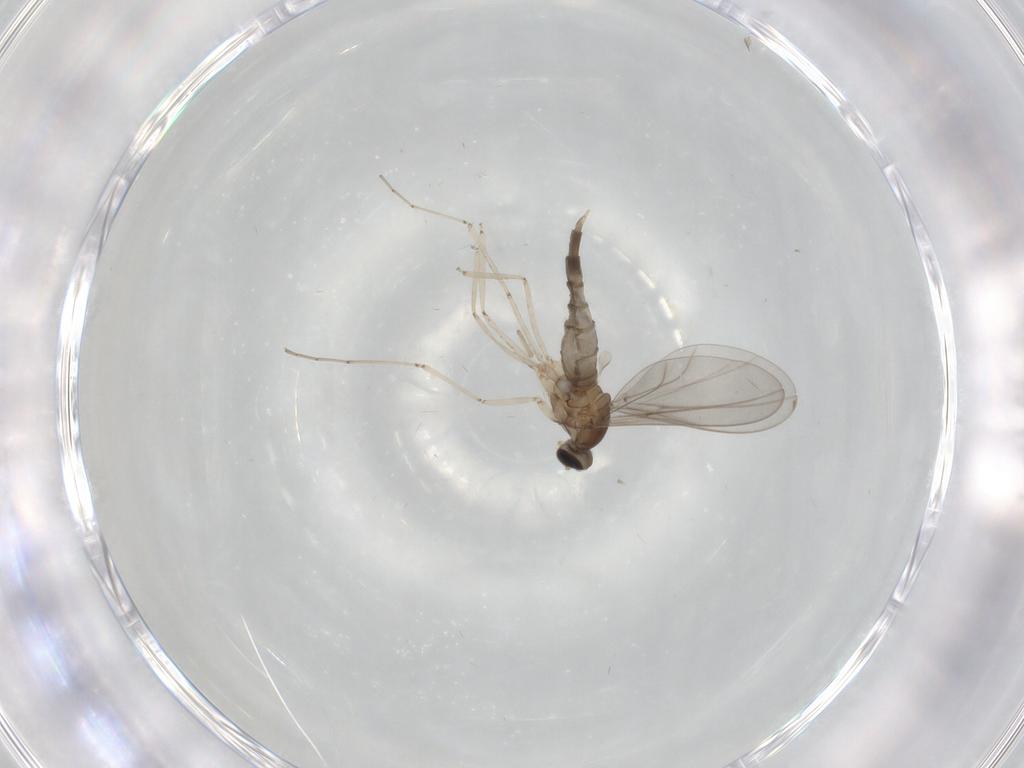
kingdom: Animalia
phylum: Arthropoda
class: Insecta
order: Diptera
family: Cecidomyiidae
